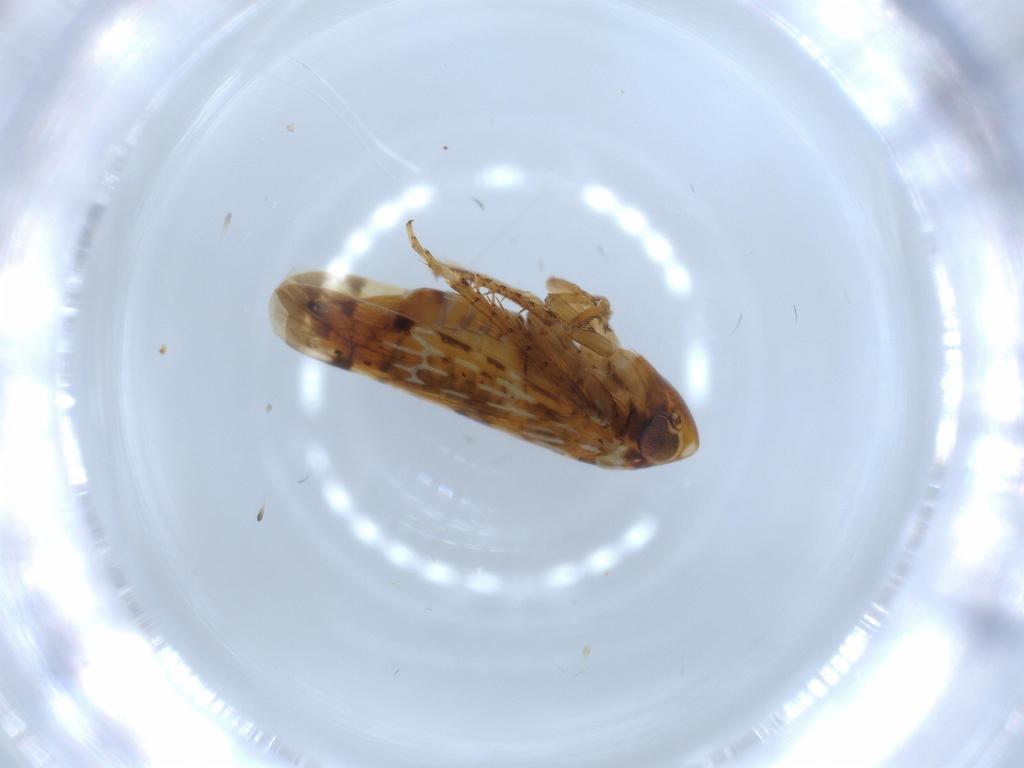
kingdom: Animalia
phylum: Arthropoda
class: Insecta
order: Hemiptera
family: Cicadellidae
